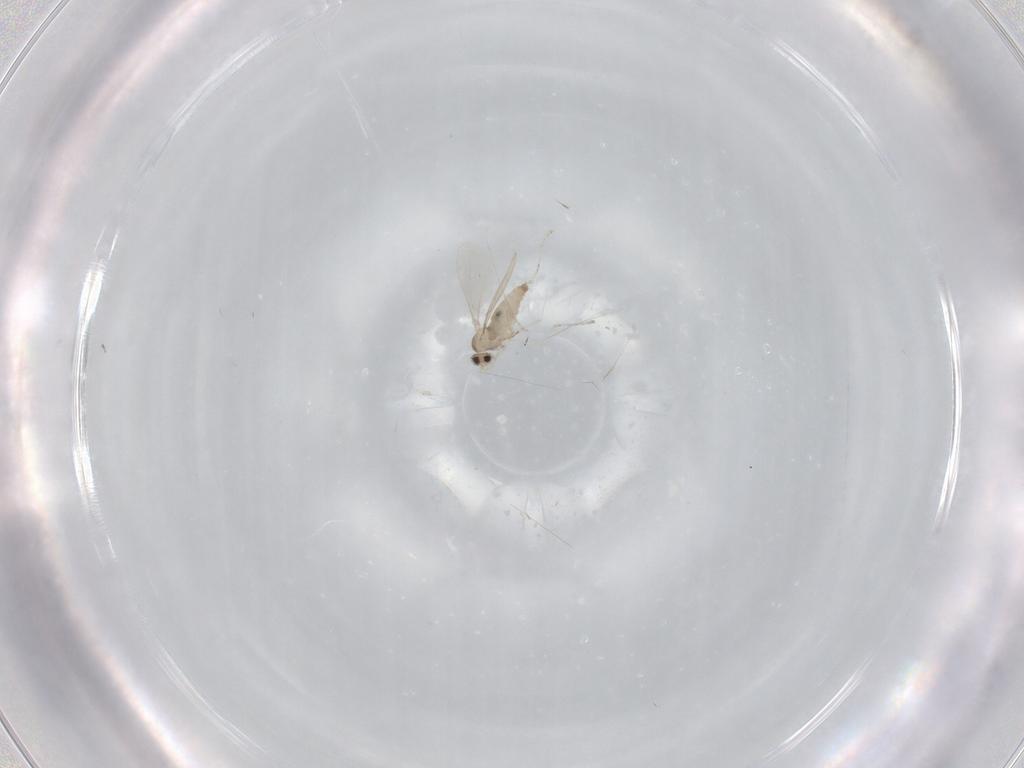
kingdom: Animalia
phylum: Arthropoda
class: Insecta
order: Diptera
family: Cecidomyiidae
